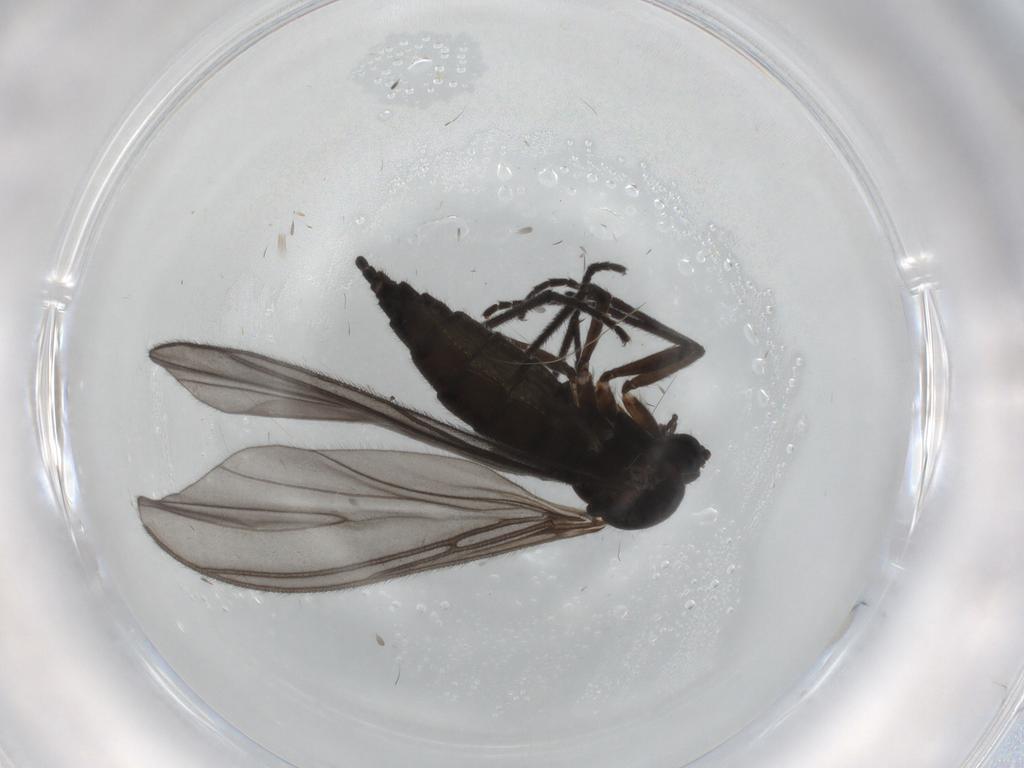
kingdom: Animalia
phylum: Arthropoda
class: Insecta
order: Diptera
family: Sciaridae
